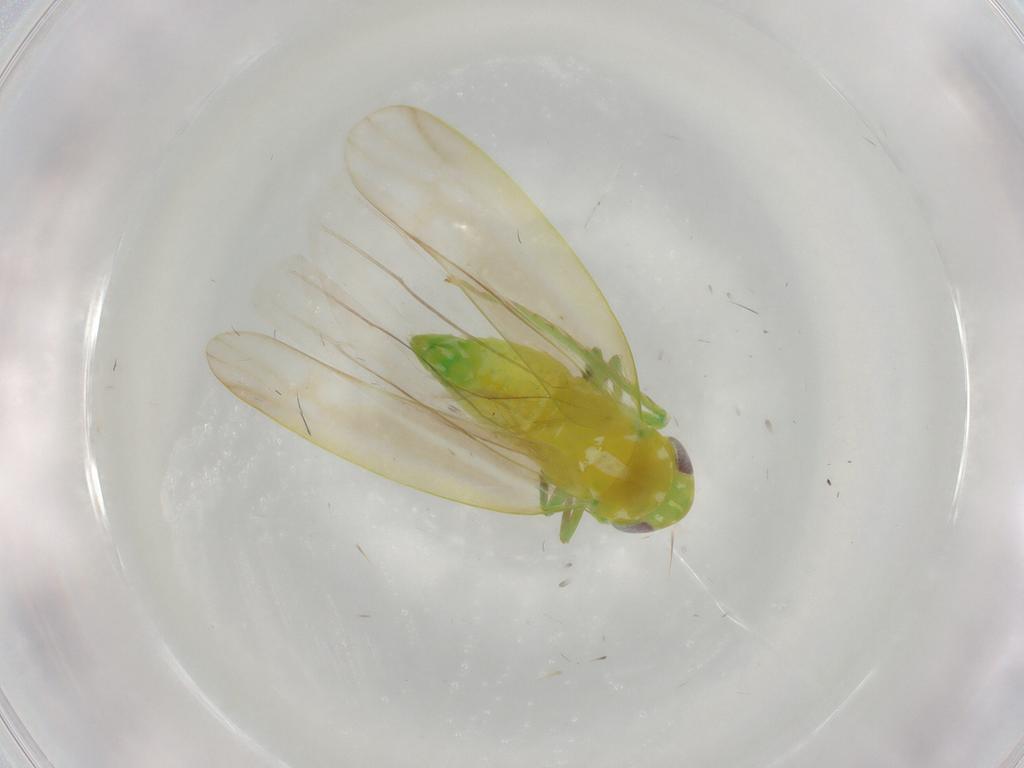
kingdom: Animalia
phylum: Arthropoda
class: Insecta
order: Hemiptera
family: Cicadellidae
